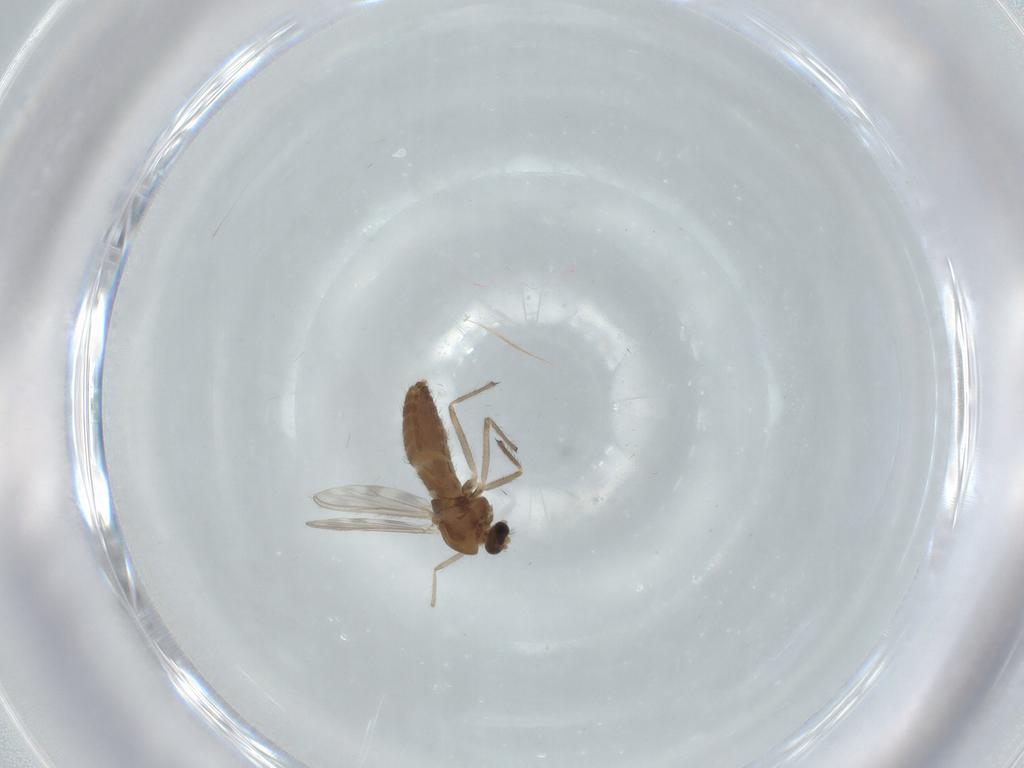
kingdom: Animalia
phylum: Arthropoda
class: Insecta
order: Diptera
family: Chironomidae
